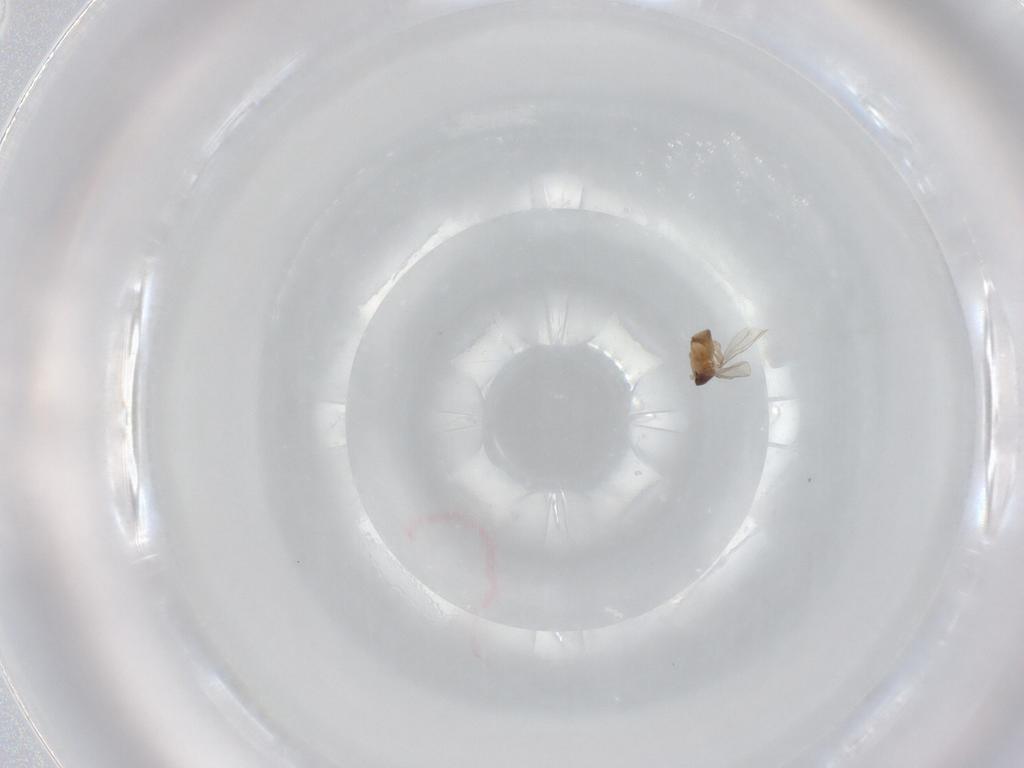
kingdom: Animalia
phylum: Arthropoda
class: Insecta
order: Diptera
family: Cecidomyiidae
